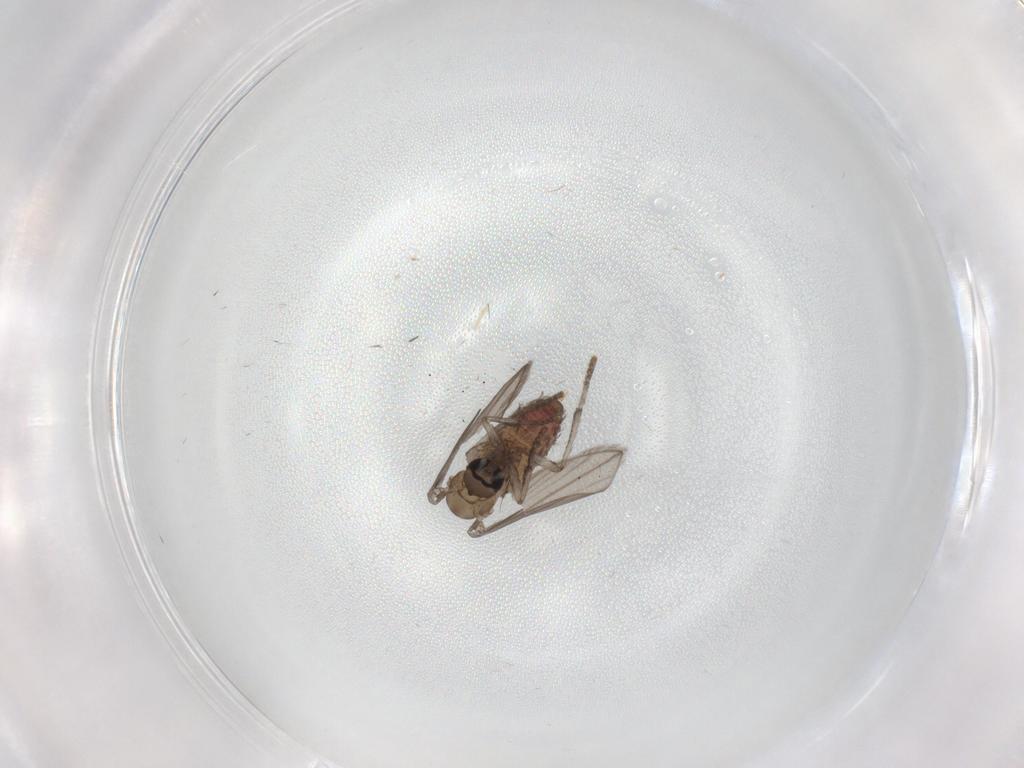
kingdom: Animalia
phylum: Arthropoda
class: Insecta
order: Diptera
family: Psychodidae
